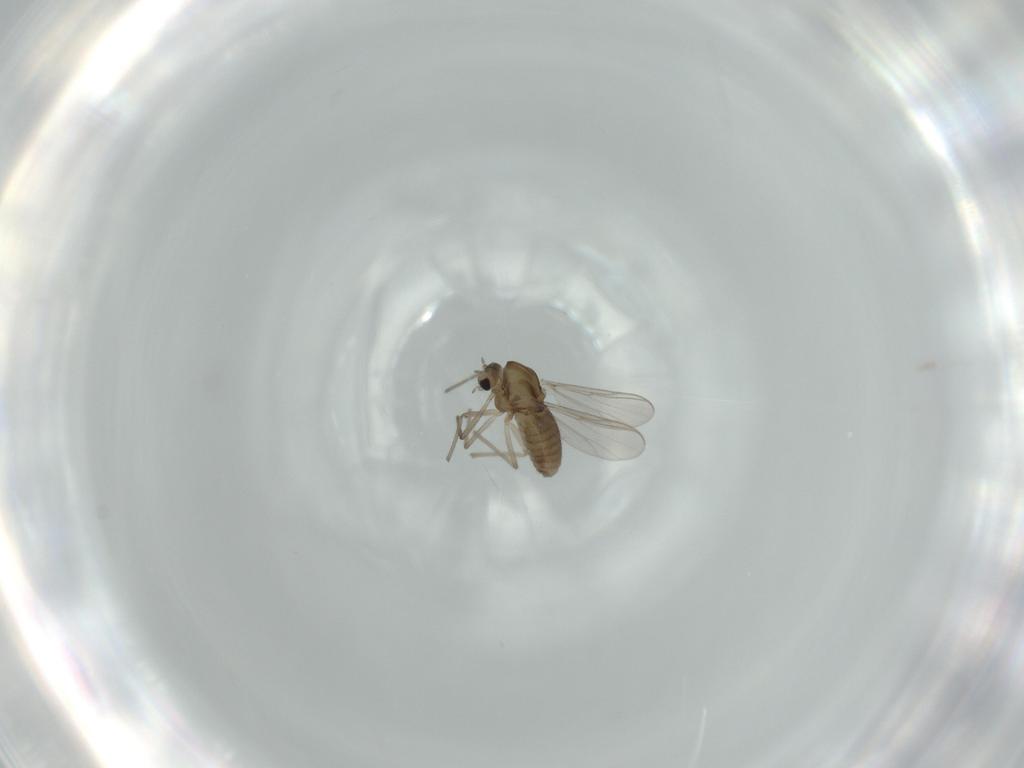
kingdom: Animalia
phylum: Arthropoda
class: Insecta
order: Diptera
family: Chironomidae
